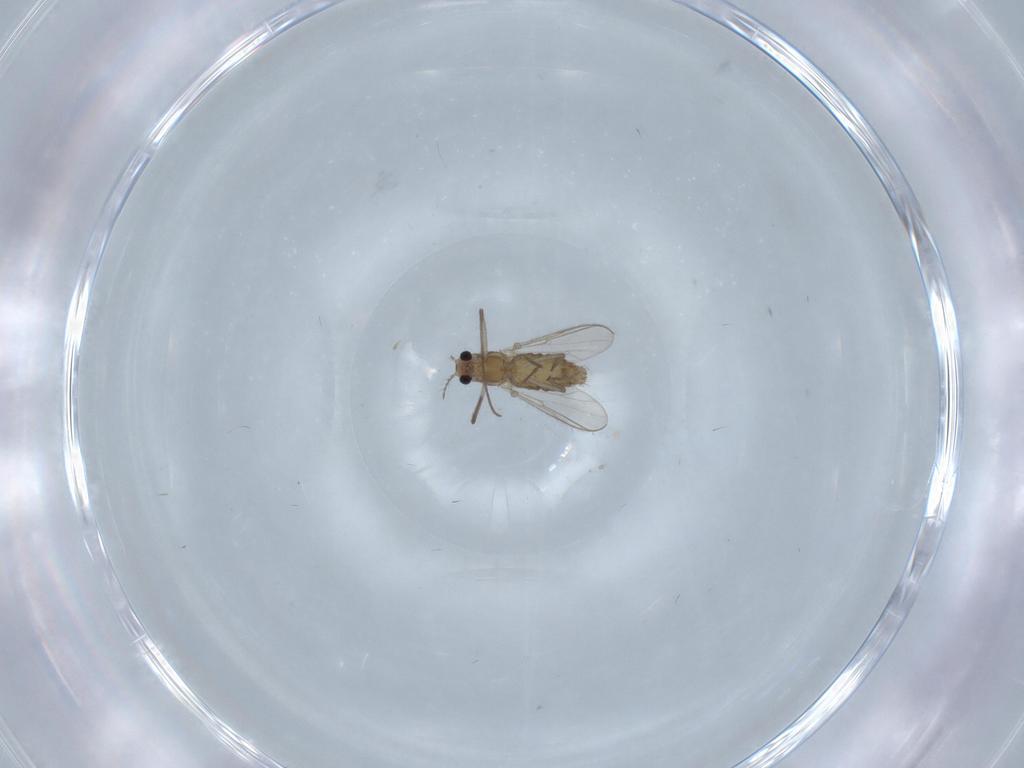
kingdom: Animalia
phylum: Arthropoda
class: Insecta
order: Diptera
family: Chironomidae
